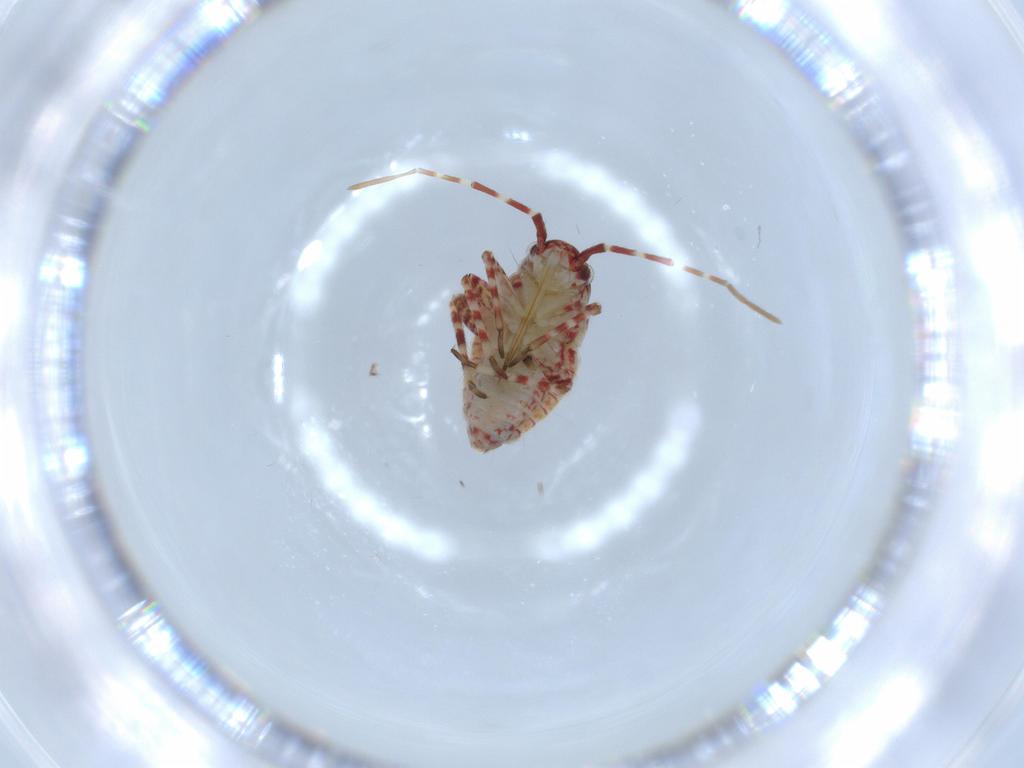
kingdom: Animalia
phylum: Arthropoda
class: Insecta
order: Hemiptera
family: Miridae
